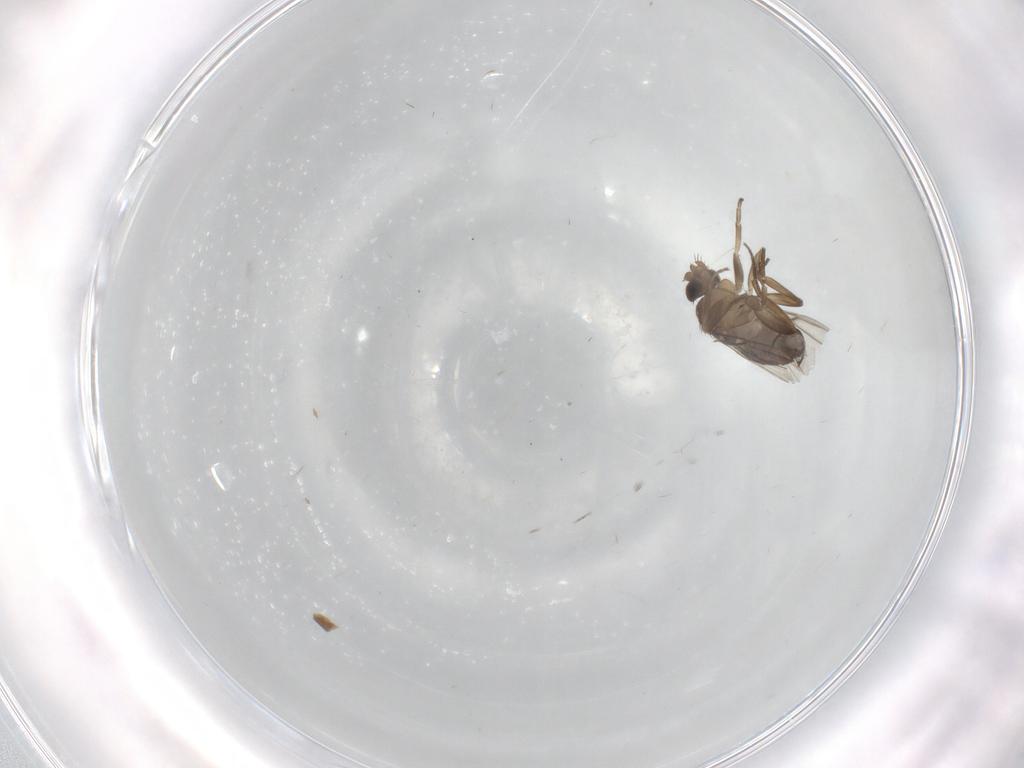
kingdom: Animalia
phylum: Arthropoda
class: Insecta
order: Diptera
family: Phoridae
